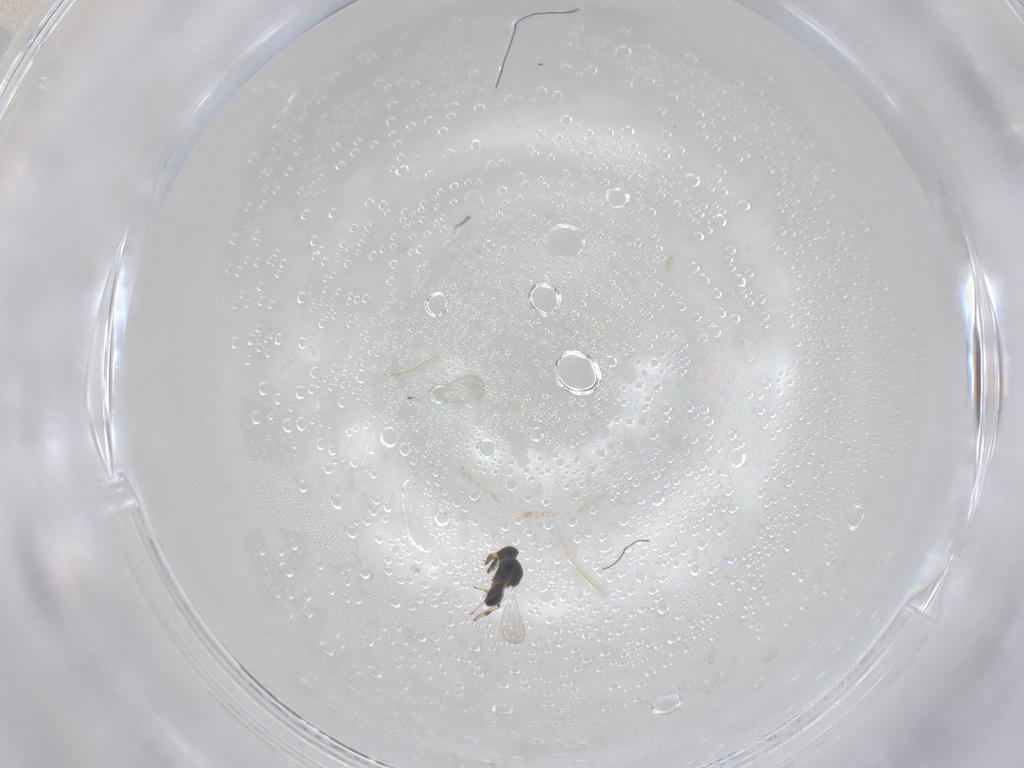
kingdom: Animalia
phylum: Arthropoda
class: Insecta
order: Hymenoptera
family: Platygastridae
